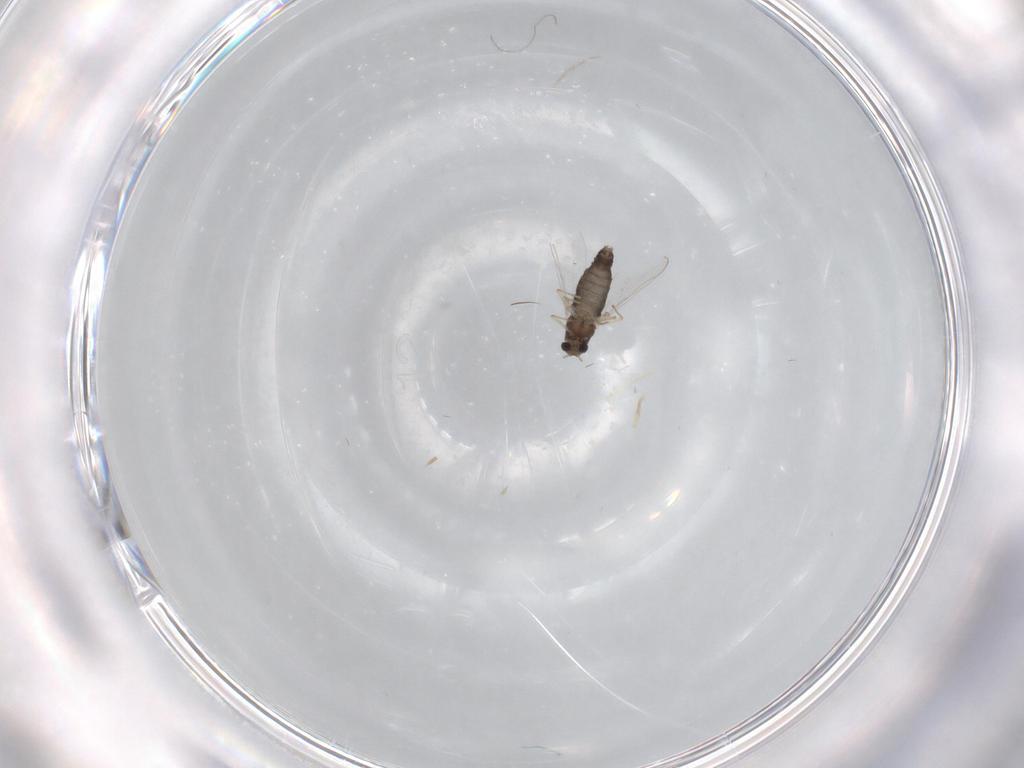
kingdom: Animalia
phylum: Arthropoda
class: Insecta
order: Diptera
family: Chironomidae
